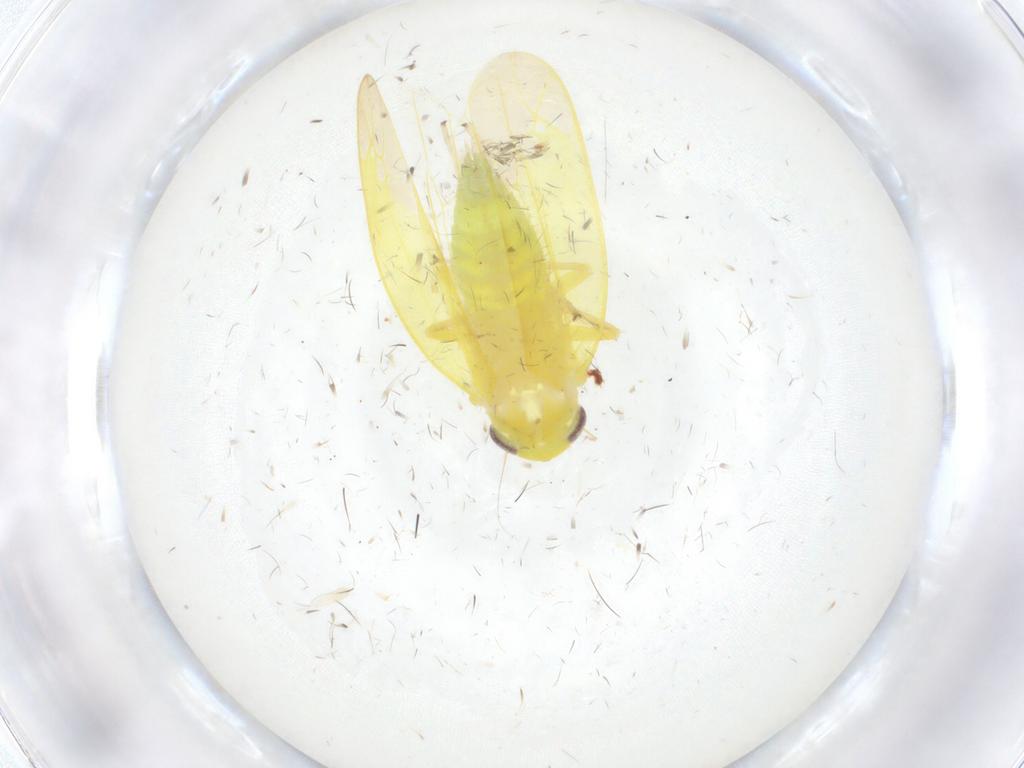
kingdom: Animalia
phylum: Arthropoda
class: Insecta
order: Hemiptera
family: Cicadellidae
